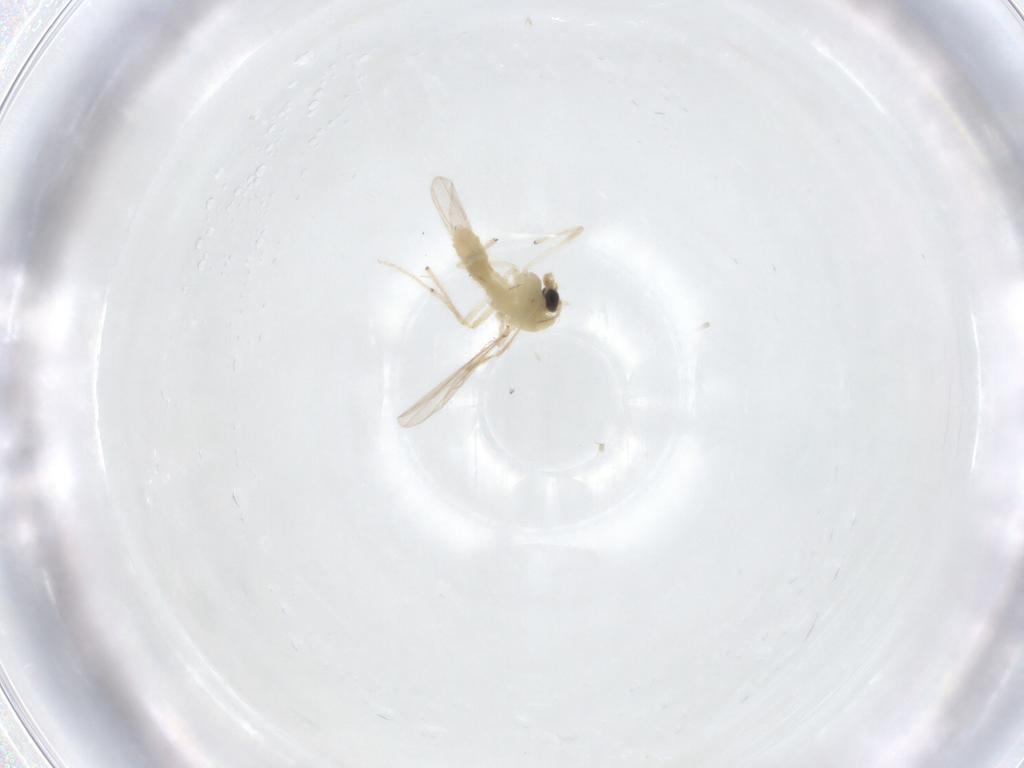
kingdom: Animalia
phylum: Arthropoda
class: Insecta
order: Diptera
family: Chironomidae
